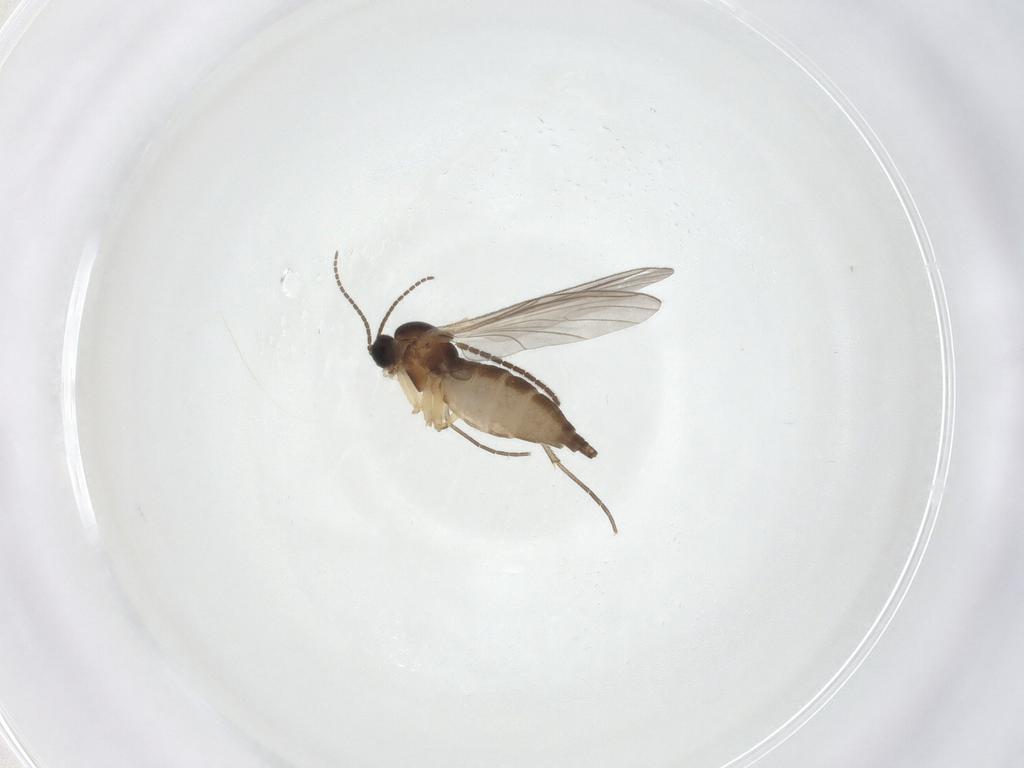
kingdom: Animalia
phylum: Arthropoda
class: Insecta
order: Diptera
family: Sciaridae
